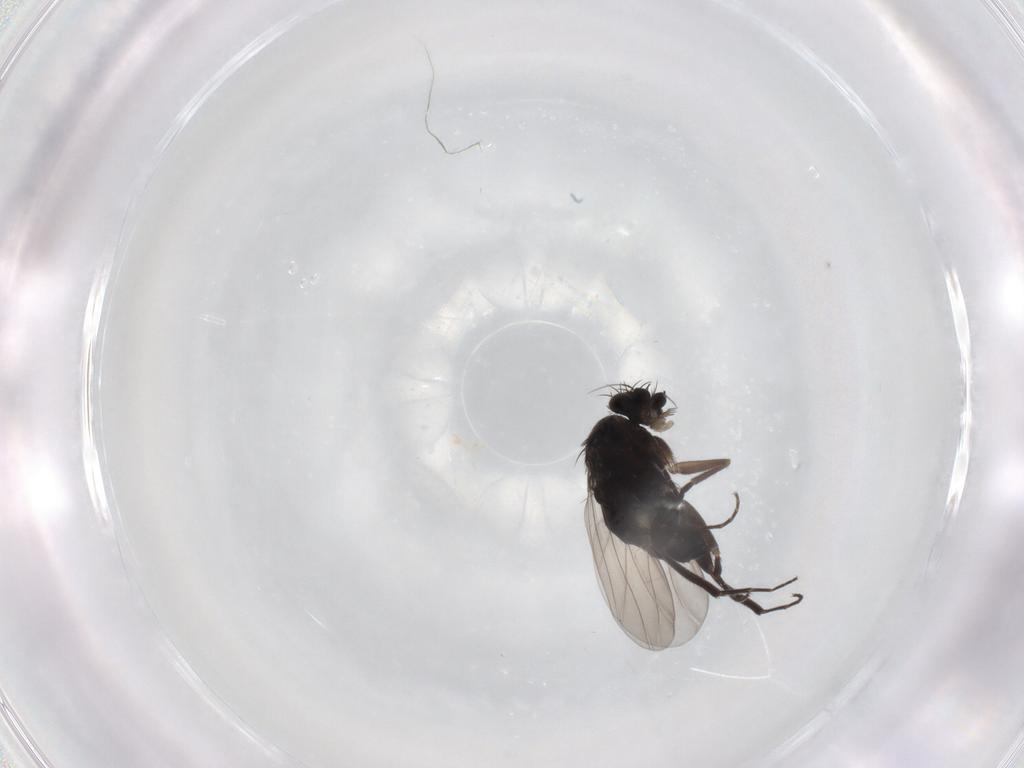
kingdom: Animalia
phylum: Arthropoda
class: Insecta
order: Diptera
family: Phoridae
